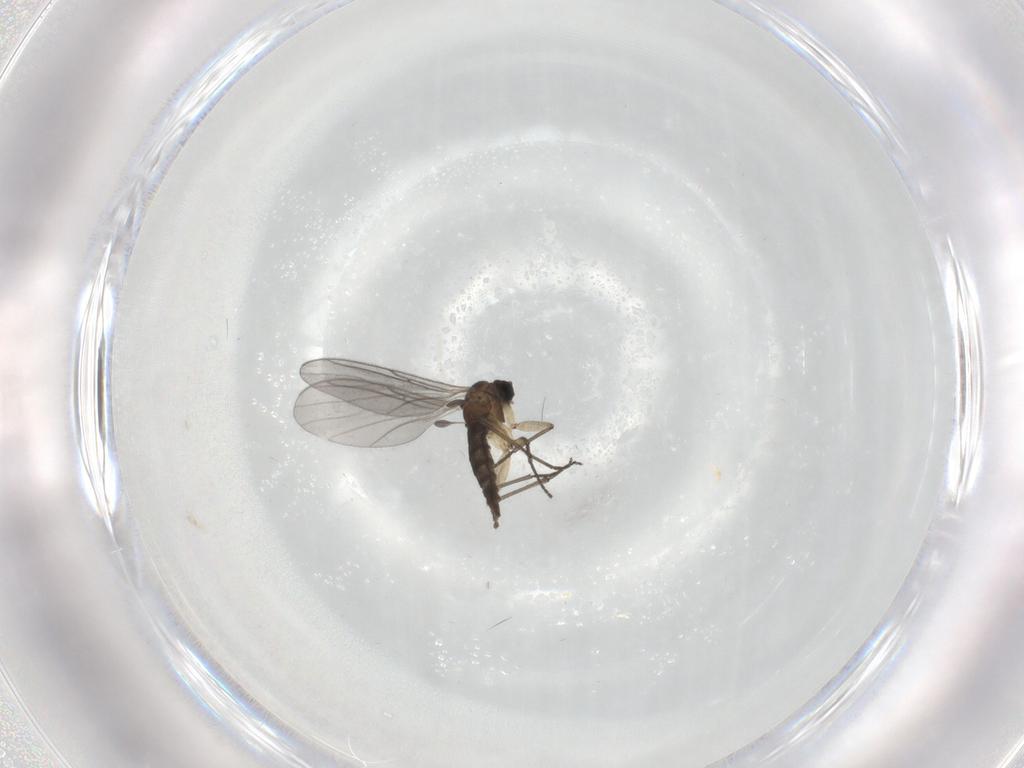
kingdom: Animalia
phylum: Arthropoda
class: Insecta
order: Diptera
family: Sciaridae
